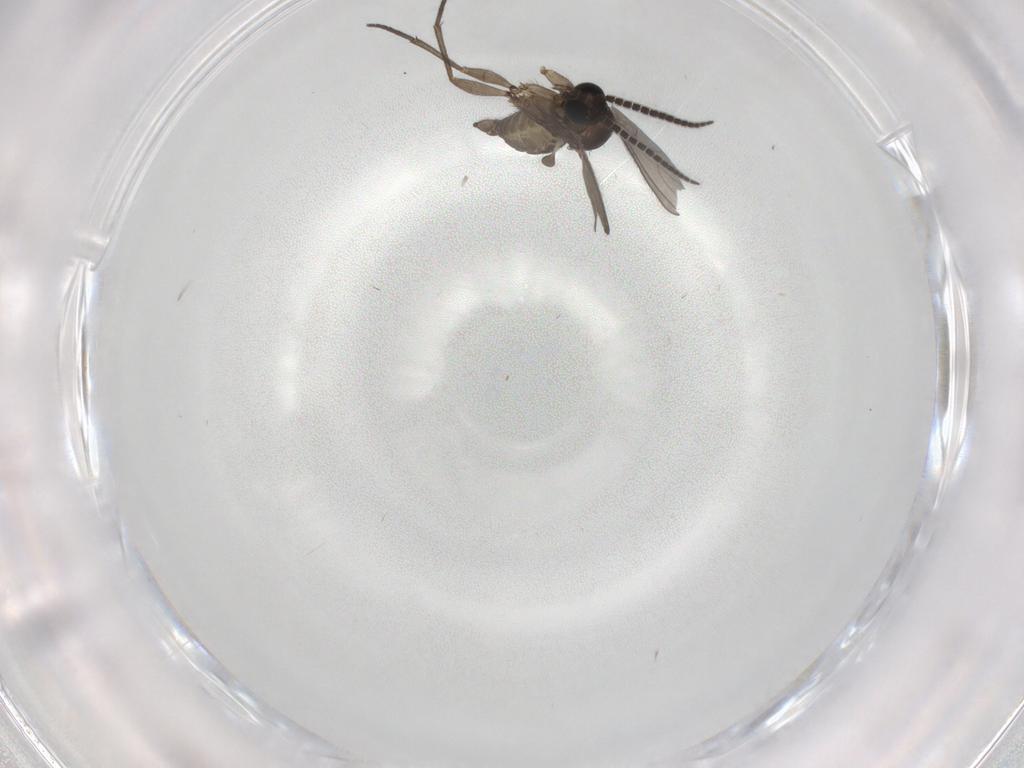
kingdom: Animalia
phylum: Arthropoda
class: Insecta
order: Diptera
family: Sciaridae
